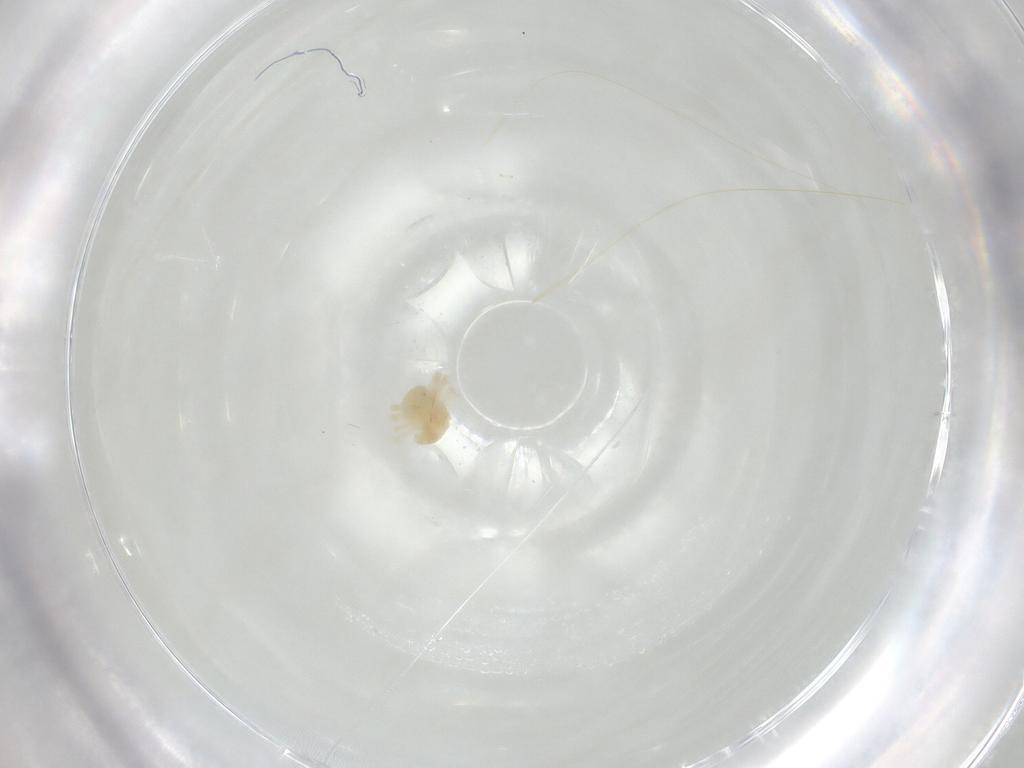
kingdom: Animalia
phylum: Arthropoda
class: Arachnida
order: Trombidiformes
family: Anystidae
